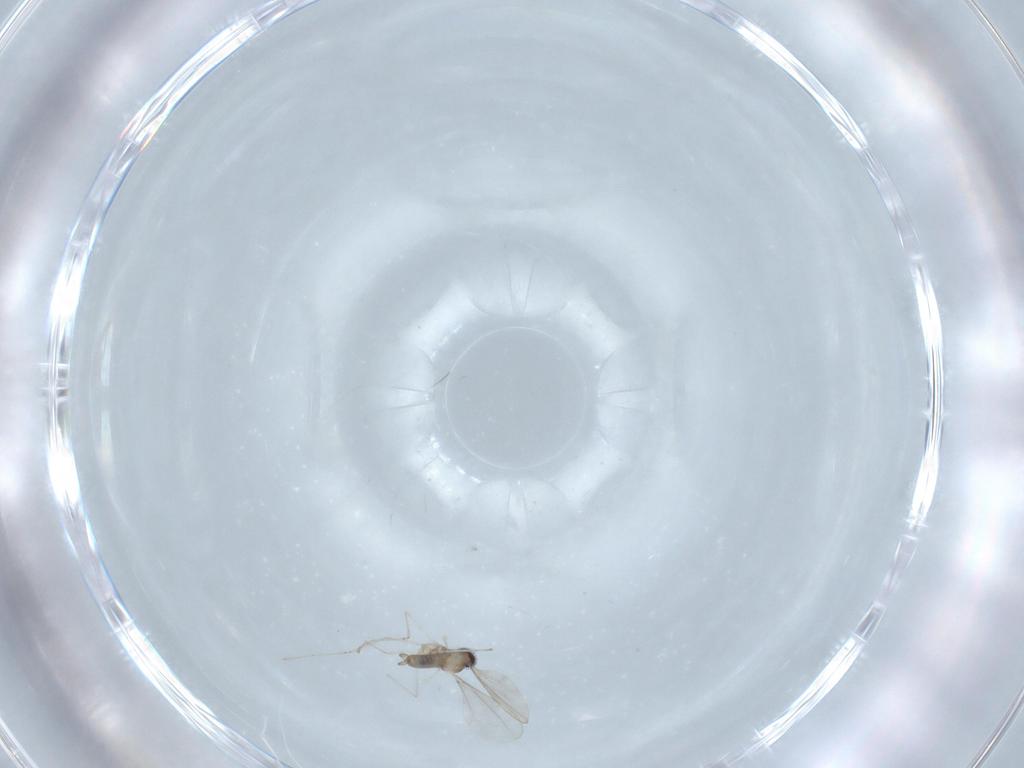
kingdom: Animalia
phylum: Arthropoda
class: Insecta
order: Diptera
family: Cecidomyiidae
